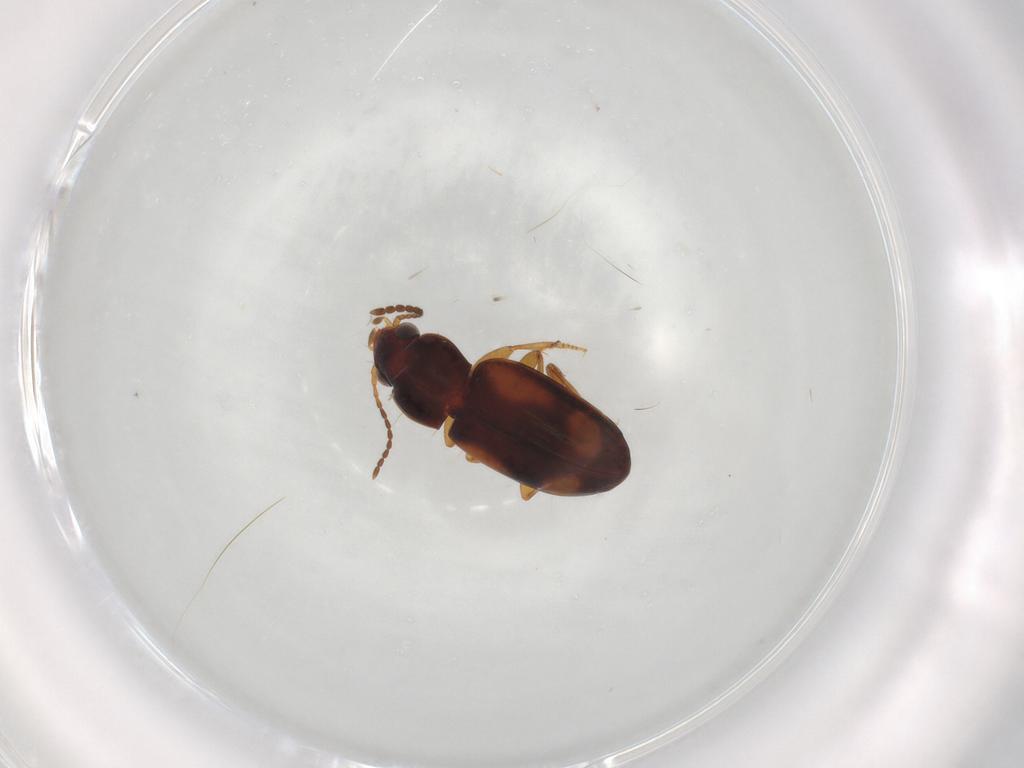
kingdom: Animalia
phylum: Arthropoda
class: Insecta
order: Coleoptera
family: Carabidae
